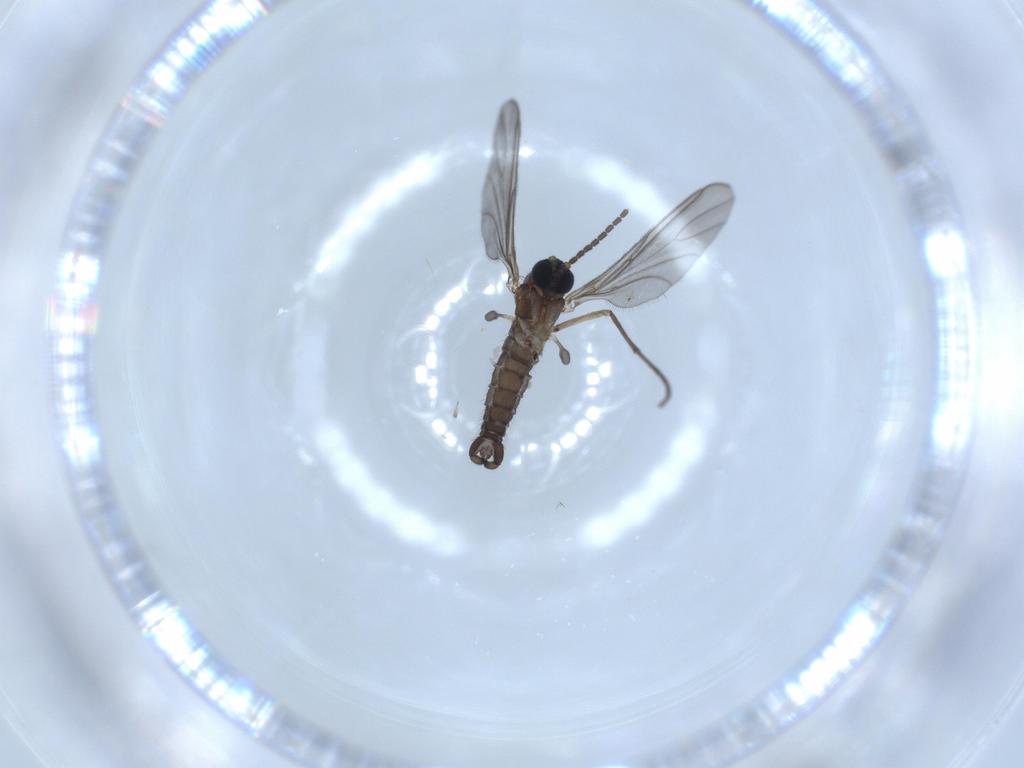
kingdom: Animalia
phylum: Arthropoda
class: Insecta
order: Diptera
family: Sciaridae
